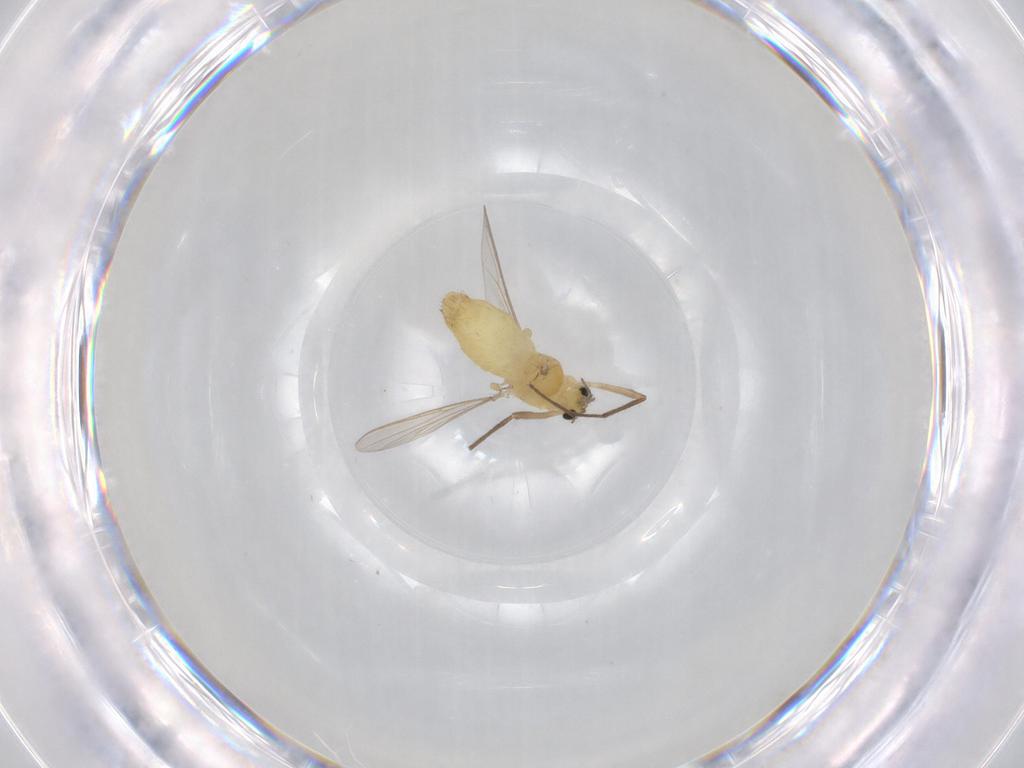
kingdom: Animalia
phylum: Arthropoda
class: Insecta
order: Diptera
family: Chironomidae
